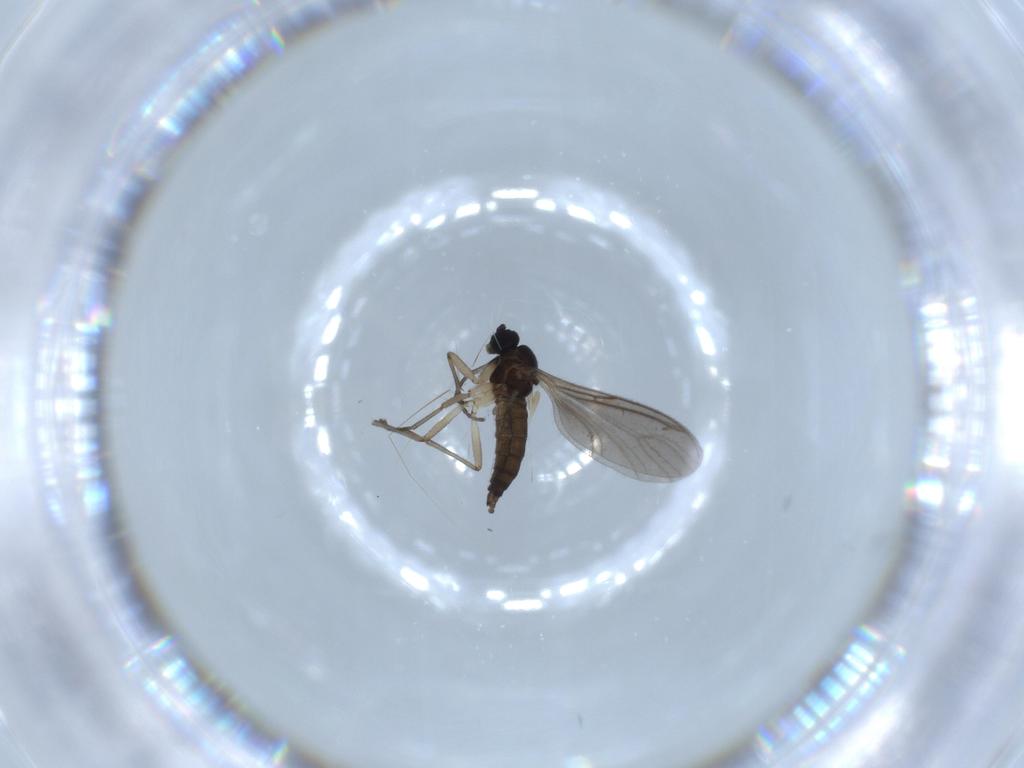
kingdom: Animalia
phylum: Arthropoda
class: Insecta
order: Diptera
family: Sciaridae
